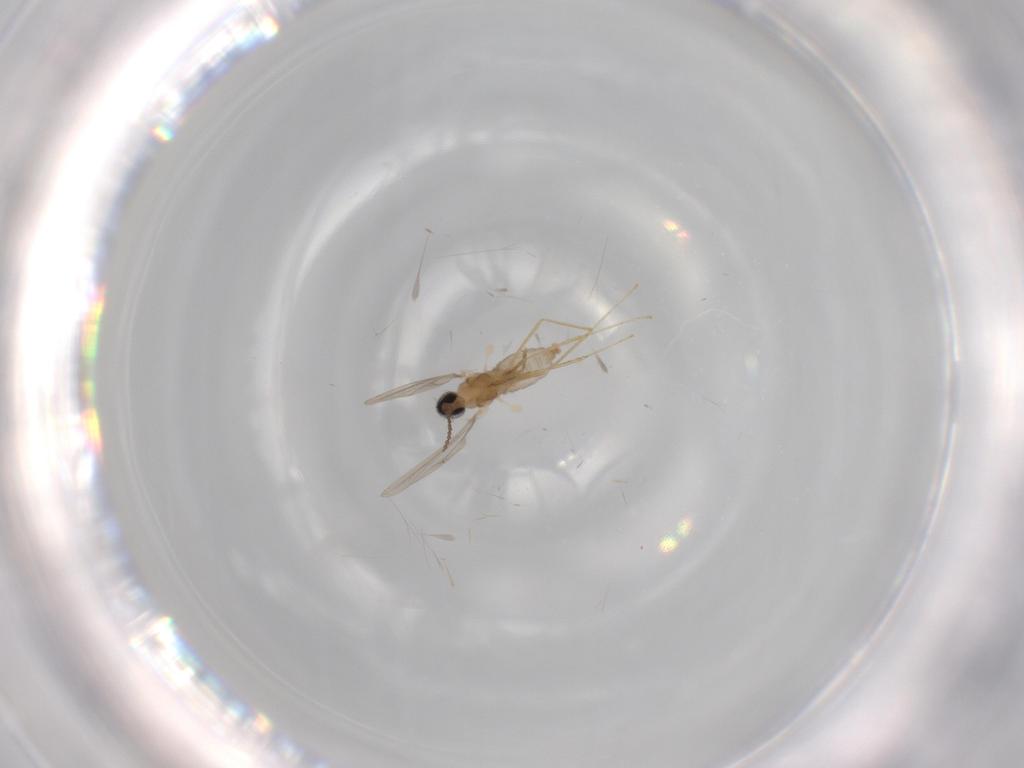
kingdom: Animalia
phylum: Arthropoda
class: Insecta
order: Diptera
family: Cecidomyiidae
